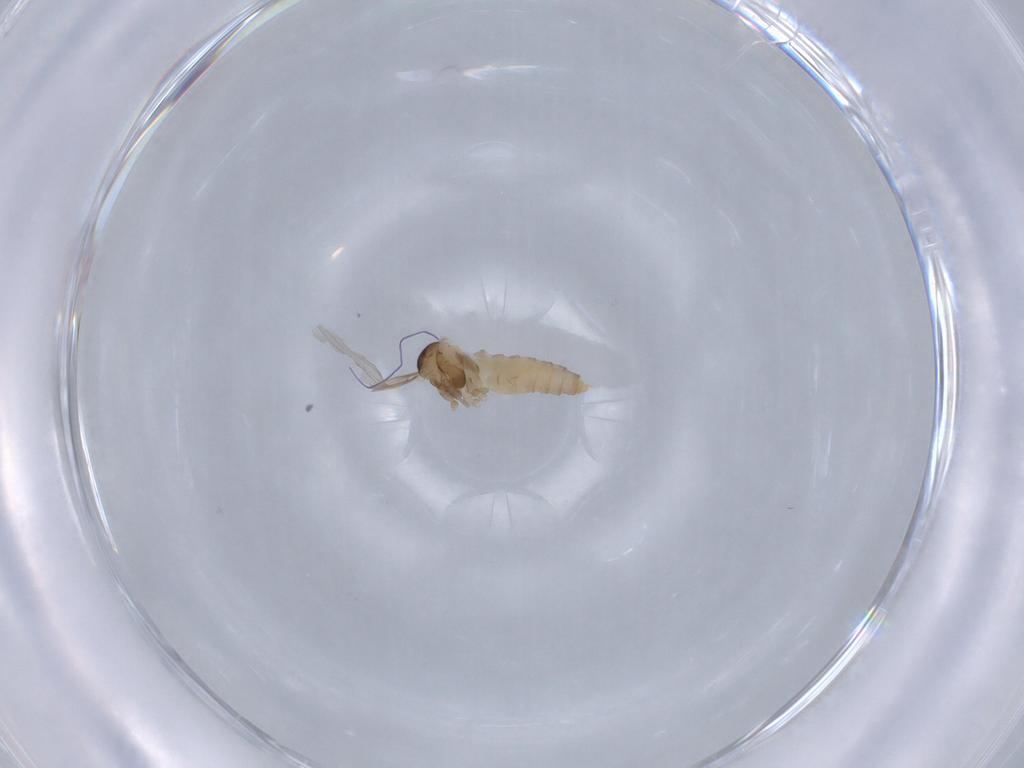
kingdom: Animalia
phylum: Arthropoda
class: Insecta
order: Diptera
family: Cecidomyiidae
